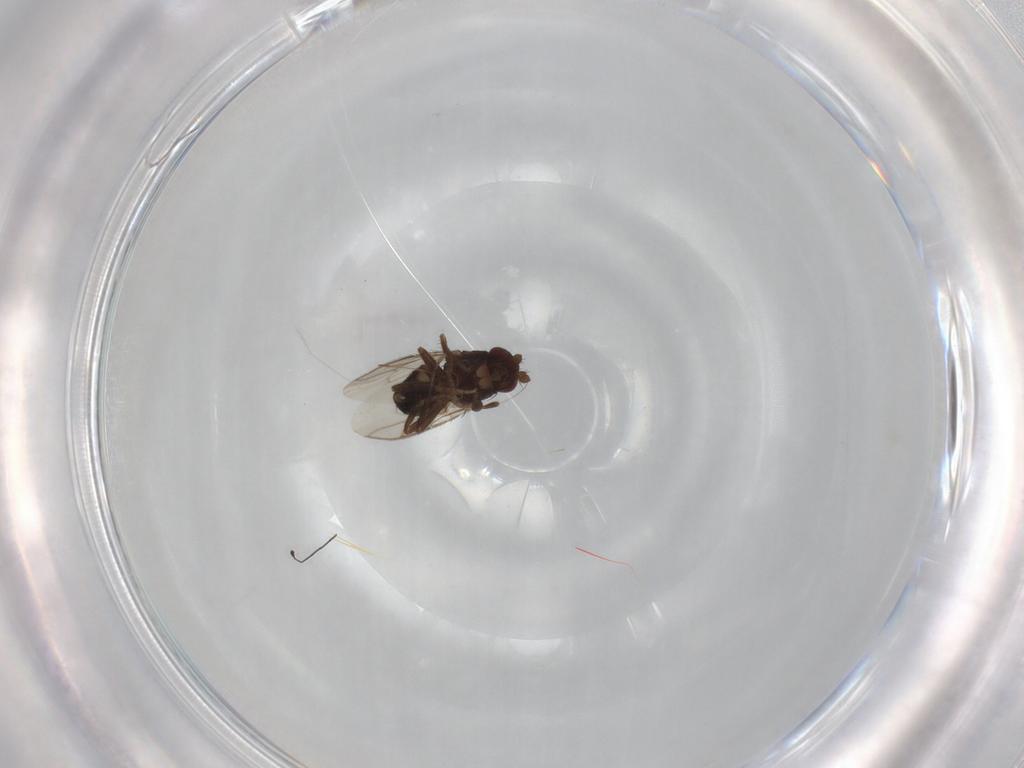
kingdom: Animalia
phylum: Arthropoda
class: Insecta
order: Diptera
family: Sphaeroceridae
